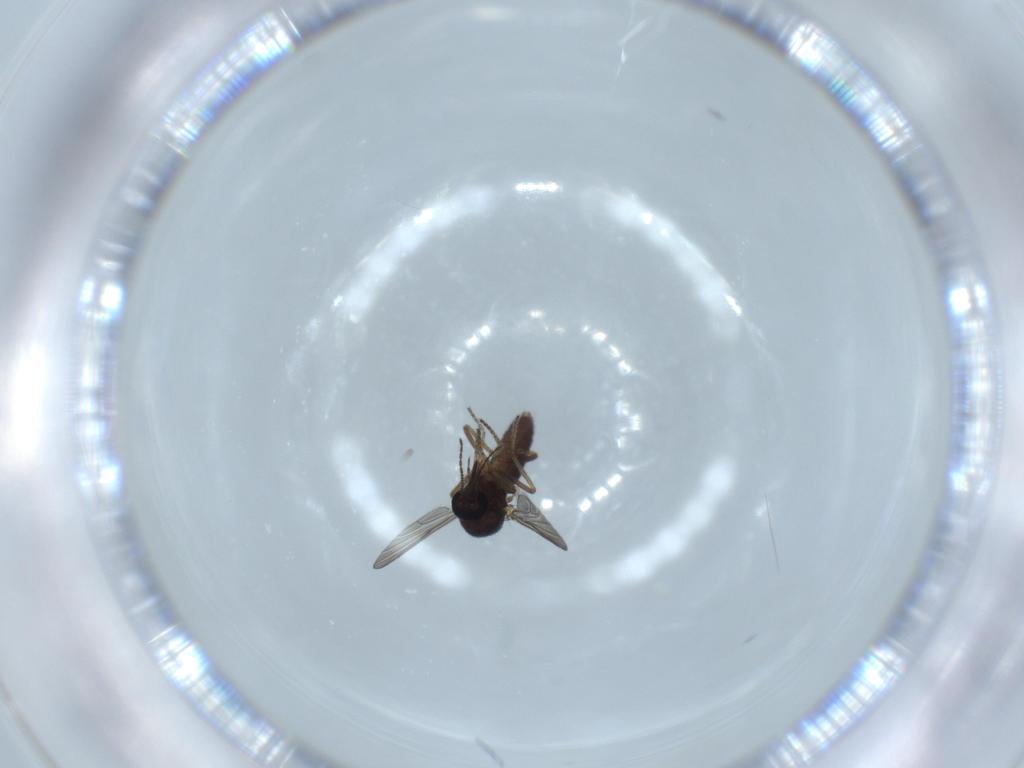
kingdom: Animalia
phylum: Arthropoda
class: Insecta
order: Diptera
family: Ceratopogonidae
